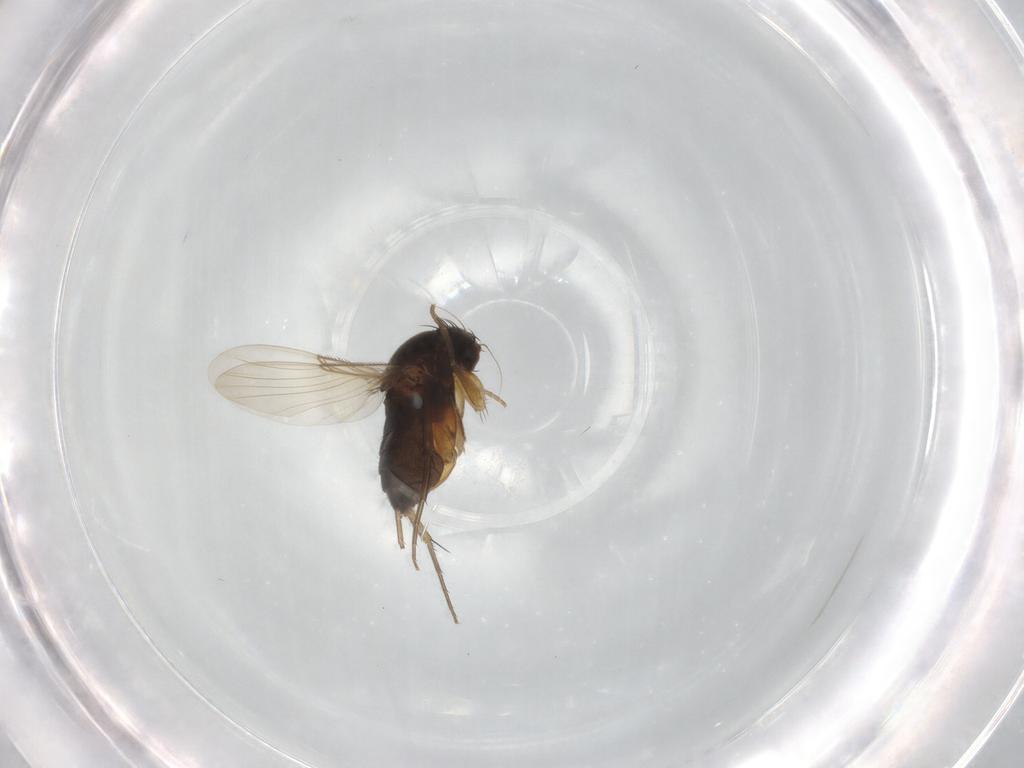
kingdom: Animalia
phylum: Arthropoda
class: Insecta
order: Diptera
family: Phoridae
